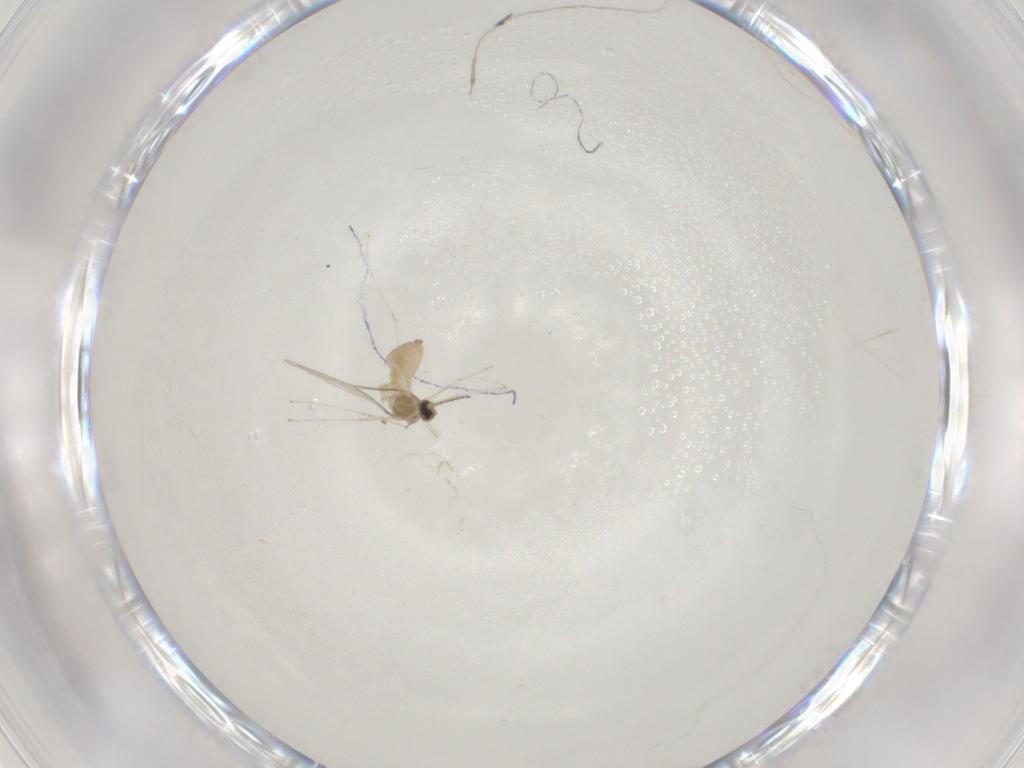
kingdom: Animalia
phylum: Arthropoda
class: Insecta
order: Diptera
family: Cecidomyiidae
